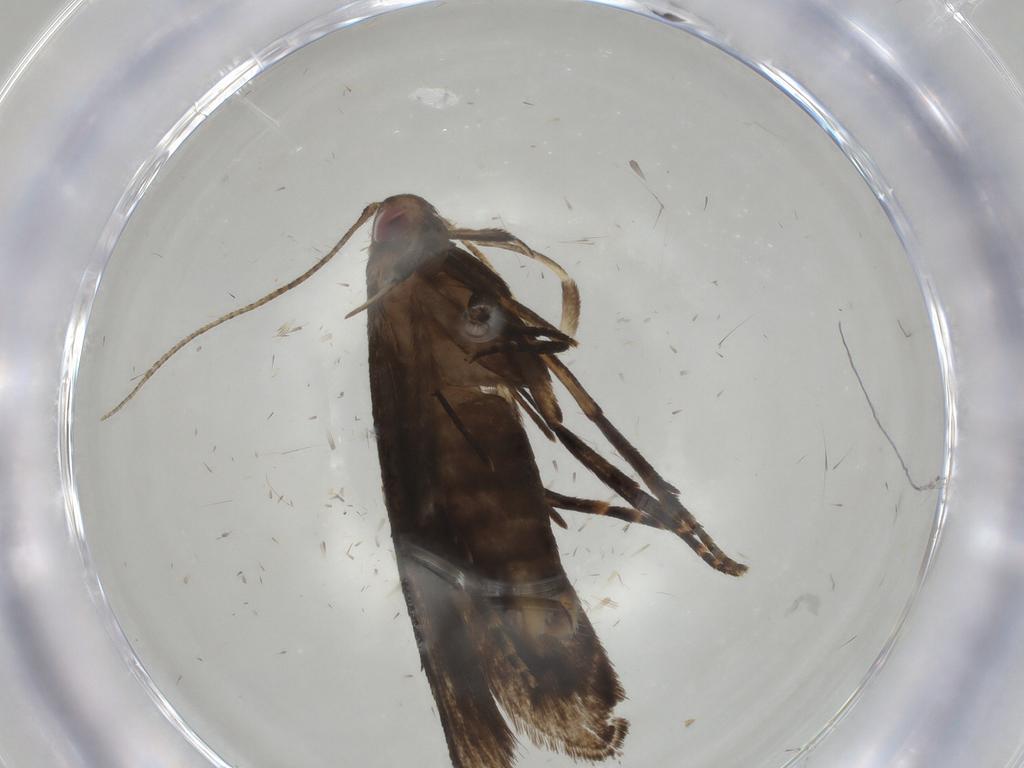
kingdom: Animalia
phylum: Arthropoda
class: Insecta
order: Lepidoptera
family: Gelechiidae
